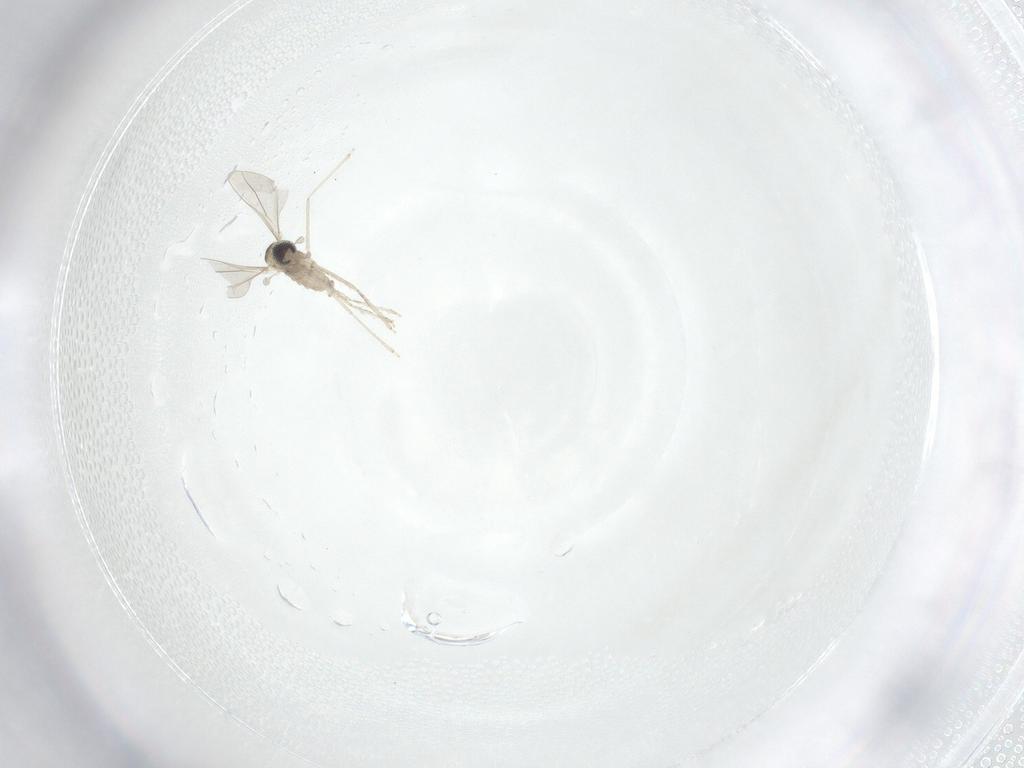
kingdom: Animalia
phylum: Arthropoda
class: Insecta
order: Diptera
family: Cecidomyiidae
